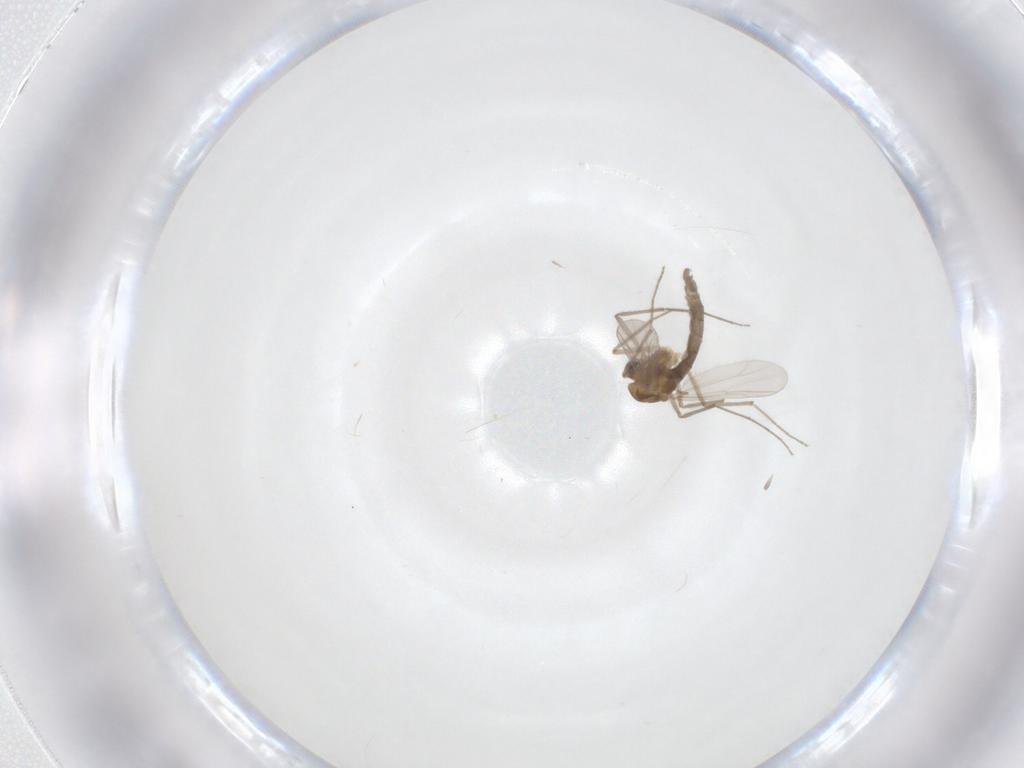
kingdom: Animalia
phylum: Arthropoda
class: Insecta
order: Diptera
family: Chironomidae
